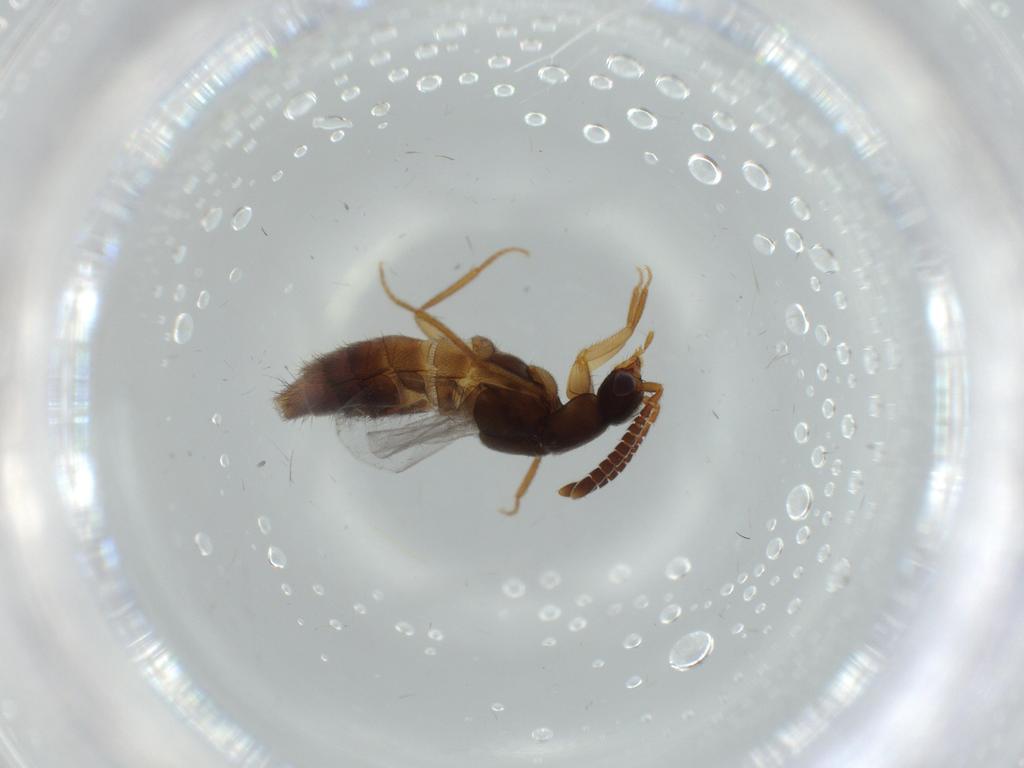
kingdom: Animalia
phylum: Arthropoda
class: Insecta
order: Coleoptera
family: Staphylinidae
